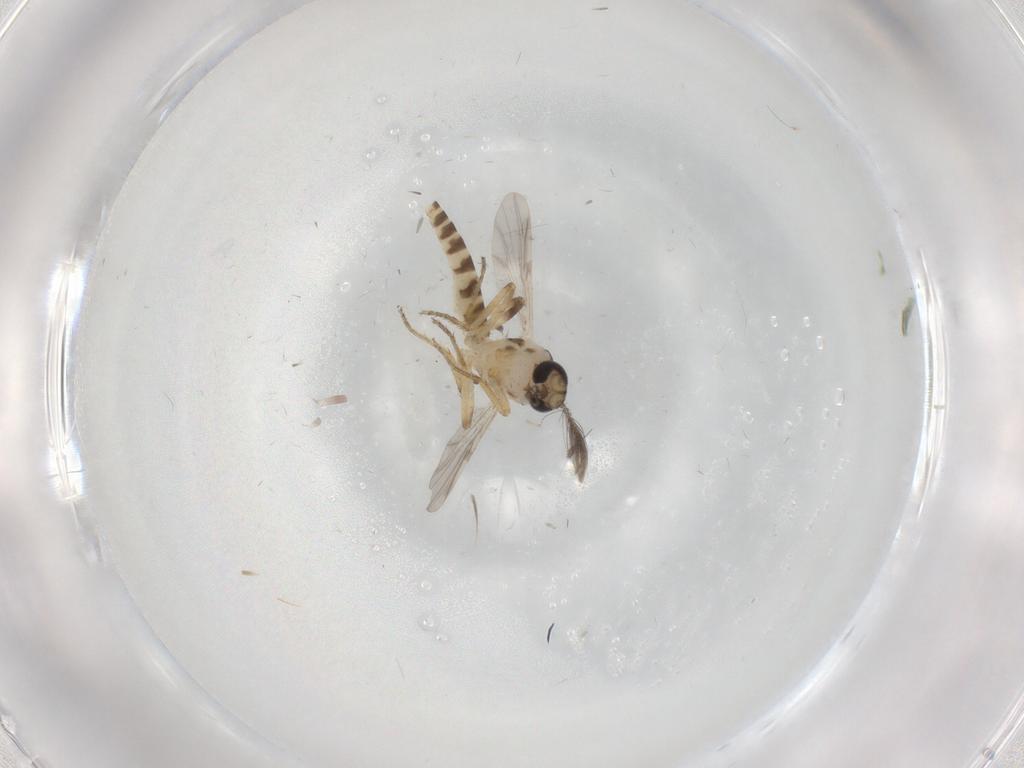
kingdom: Animalia
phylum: Arthropoda
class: Insecta
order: Diptera
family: Ceratopogonidae
